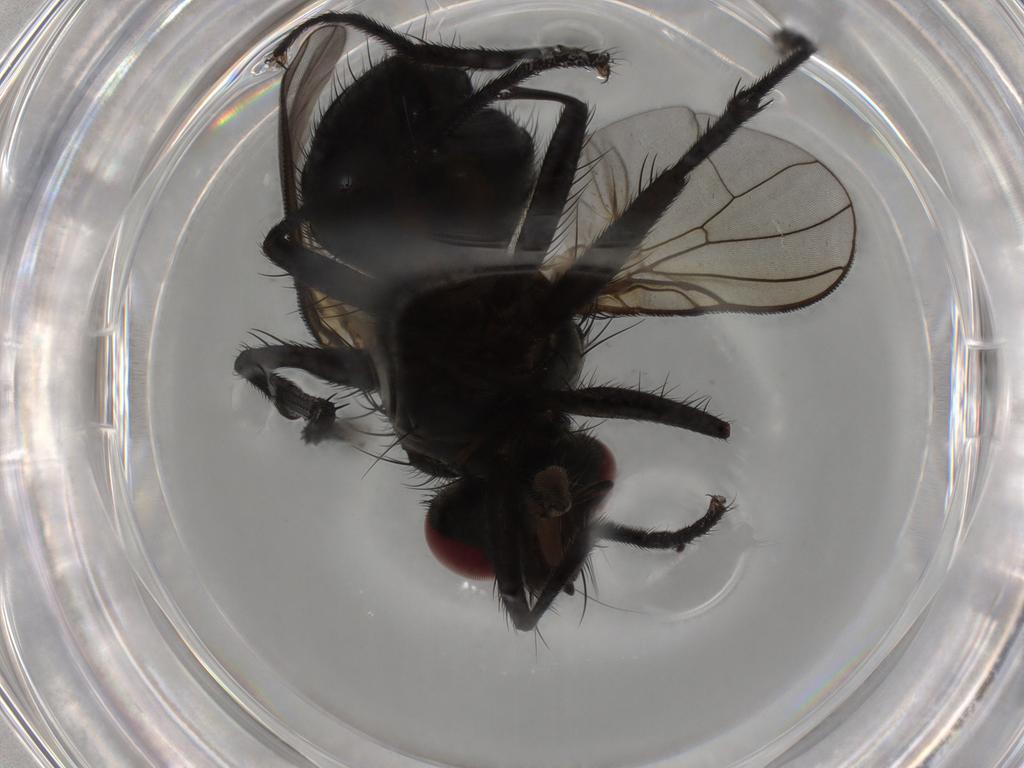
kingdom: Animalia
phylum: Arthropoda
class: Insecta
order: Diptera
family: Muscidae
